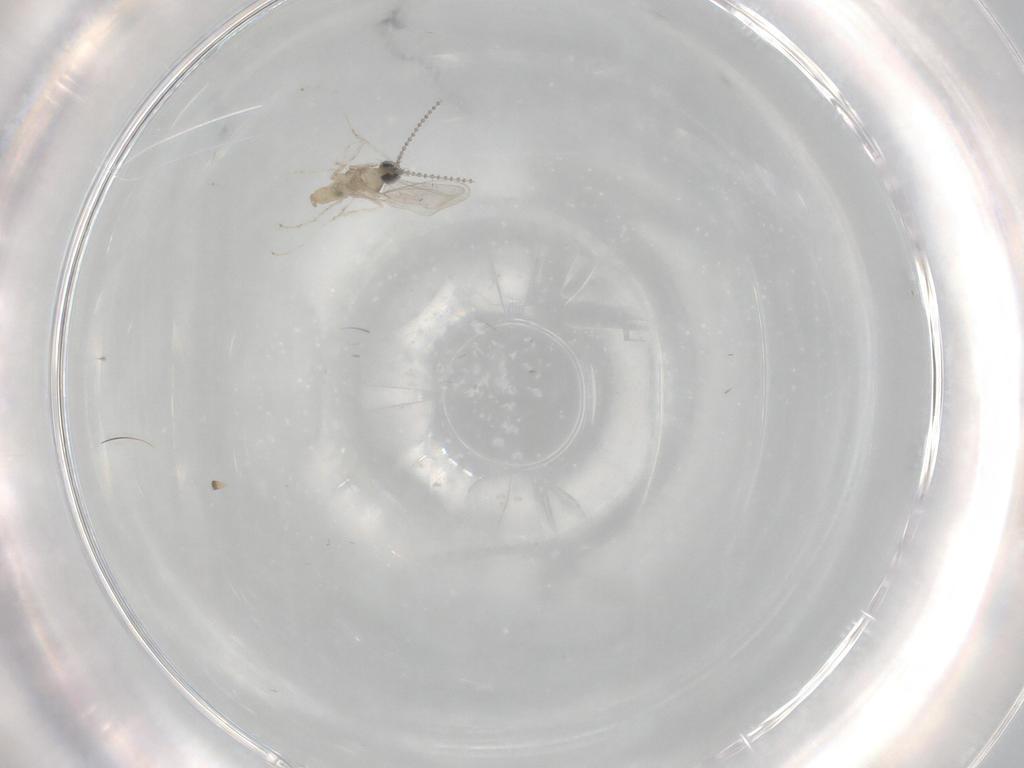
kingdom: Animalia
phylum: Arthropoda
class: Insecta
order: Diptera
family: Cecidomyiidae
